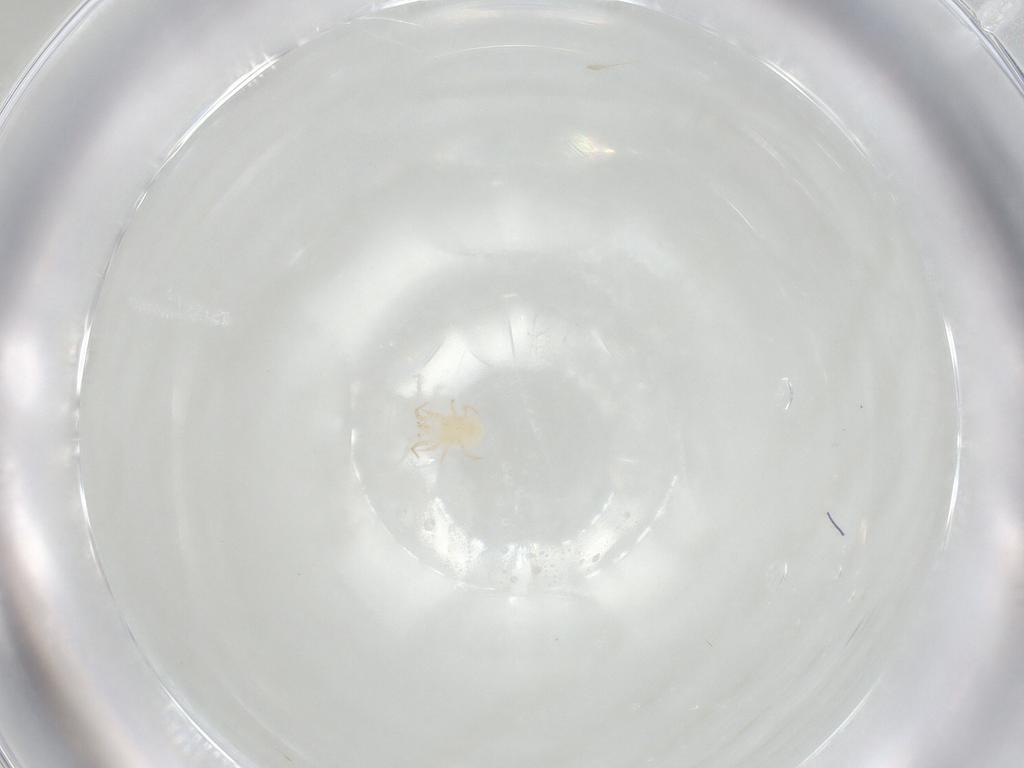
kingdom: Animalia
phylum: Arthropoda
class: Arachnida
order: Mesostigmata
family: Phytoseiidae
